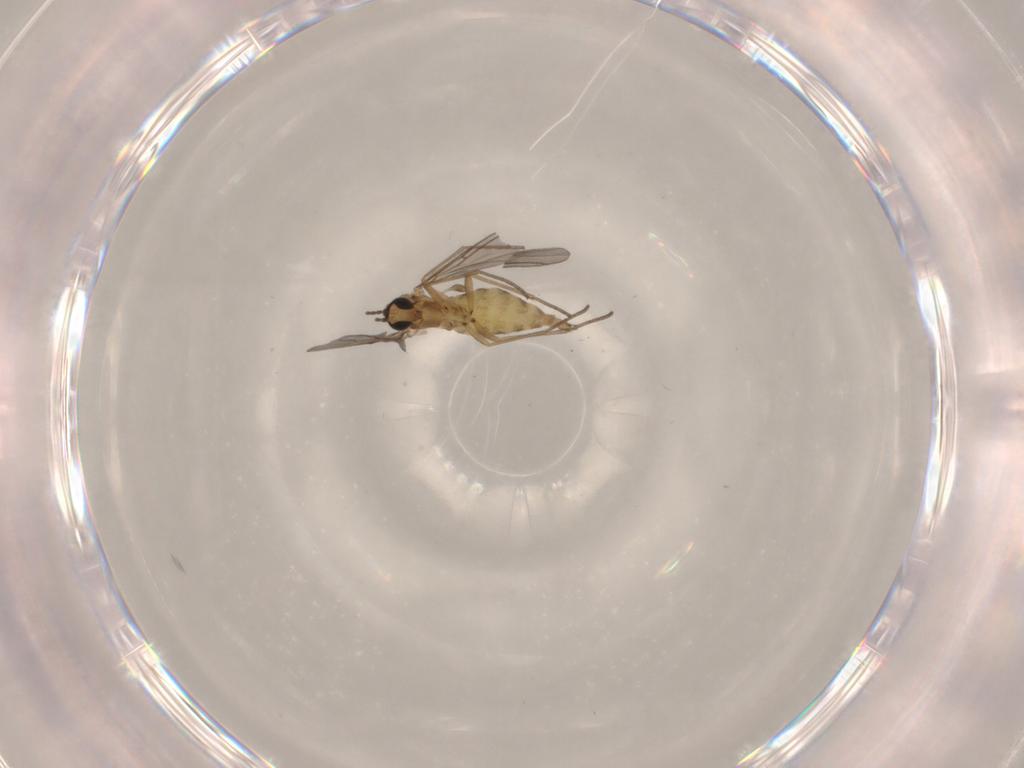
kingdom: Animalia
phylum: Arthropoda
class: Insecta
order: Diptera
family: Sciaridae
